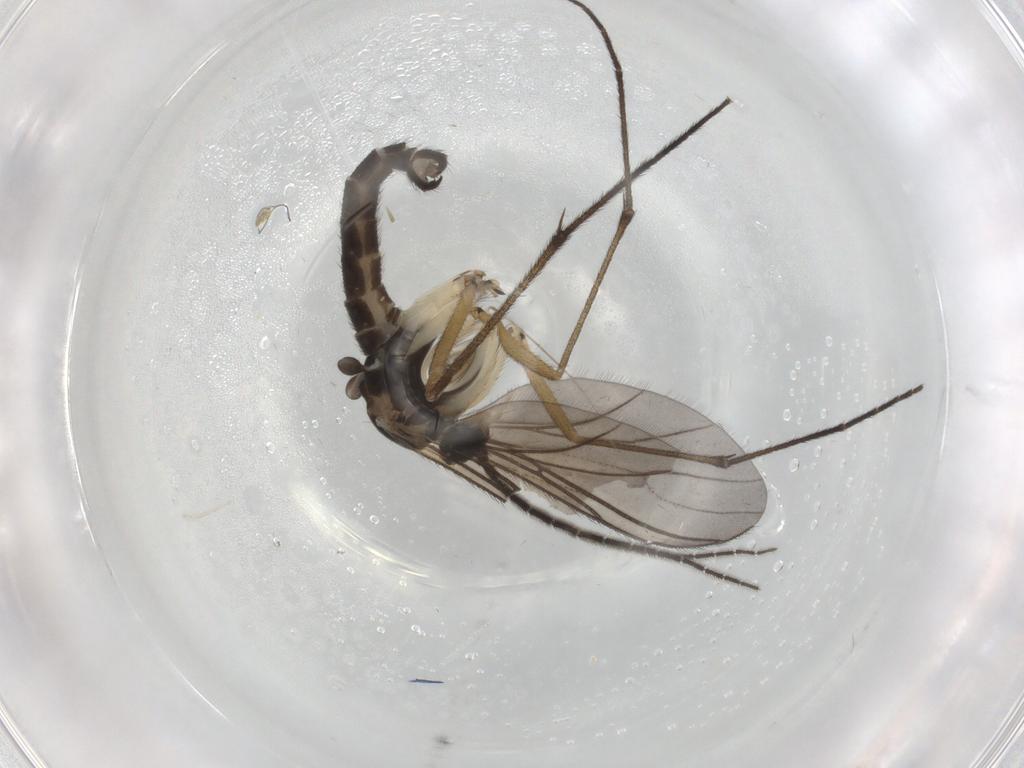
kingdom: Animalia
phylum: Arthropoda
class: Insecta
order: Diptera
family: Sciaridae
